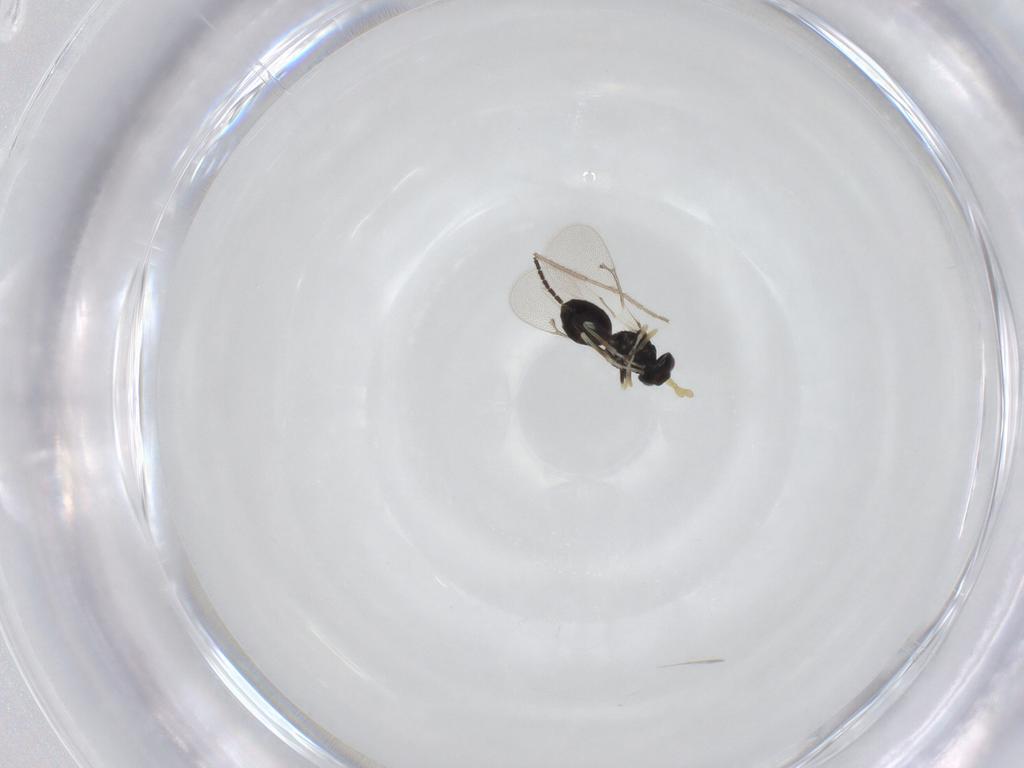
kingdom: Animalia
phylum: Arthropoda
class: Insecta
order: Hymenoptera
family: Eulophidae
